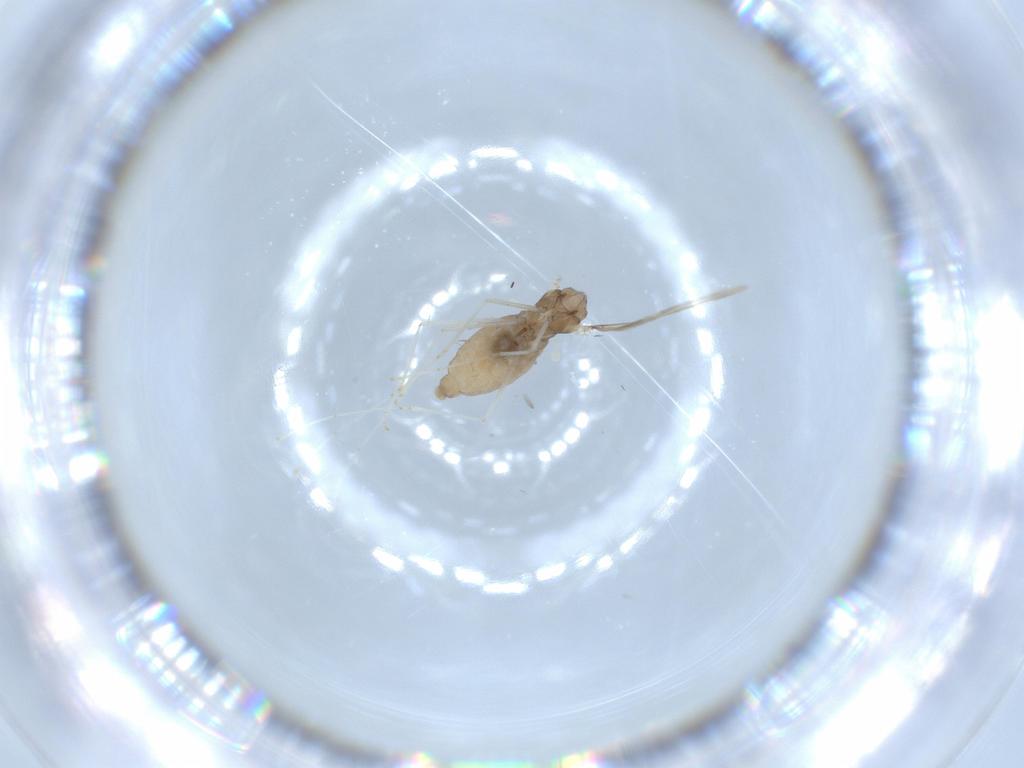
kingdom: Animalia
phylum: Arthropoda
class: Insecta
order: Diptera
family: Cecidomyiidae
